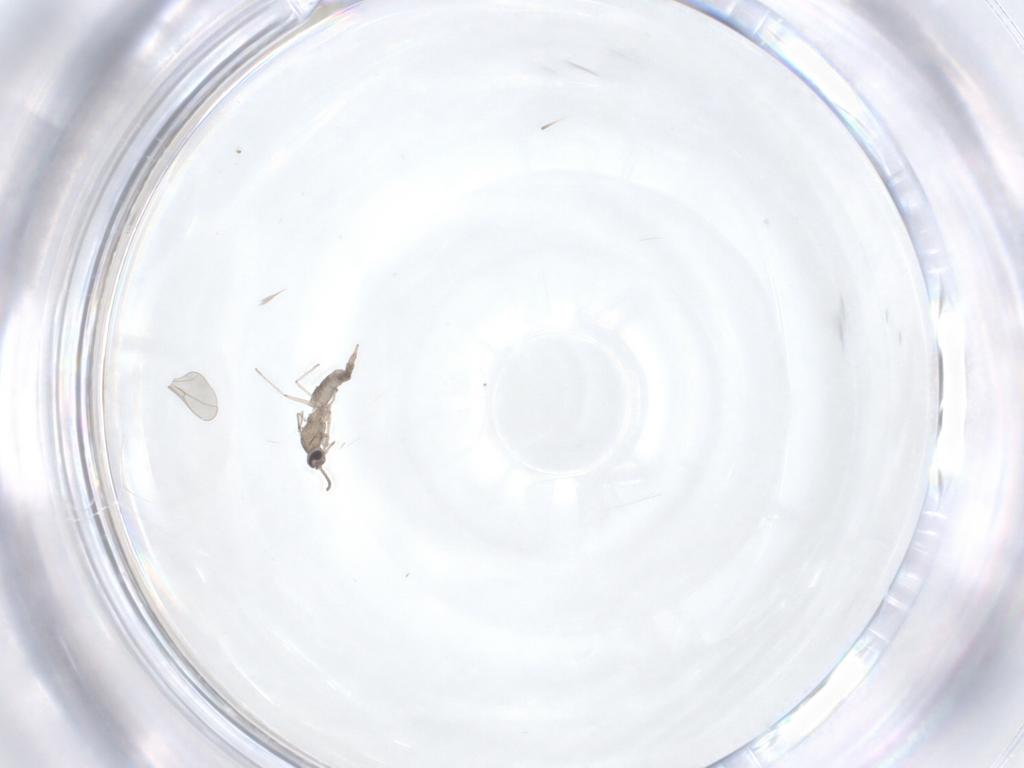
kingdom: Animalia
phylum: Arthropoda
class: Insecta
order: Diptera
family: Cecidomyiidae
